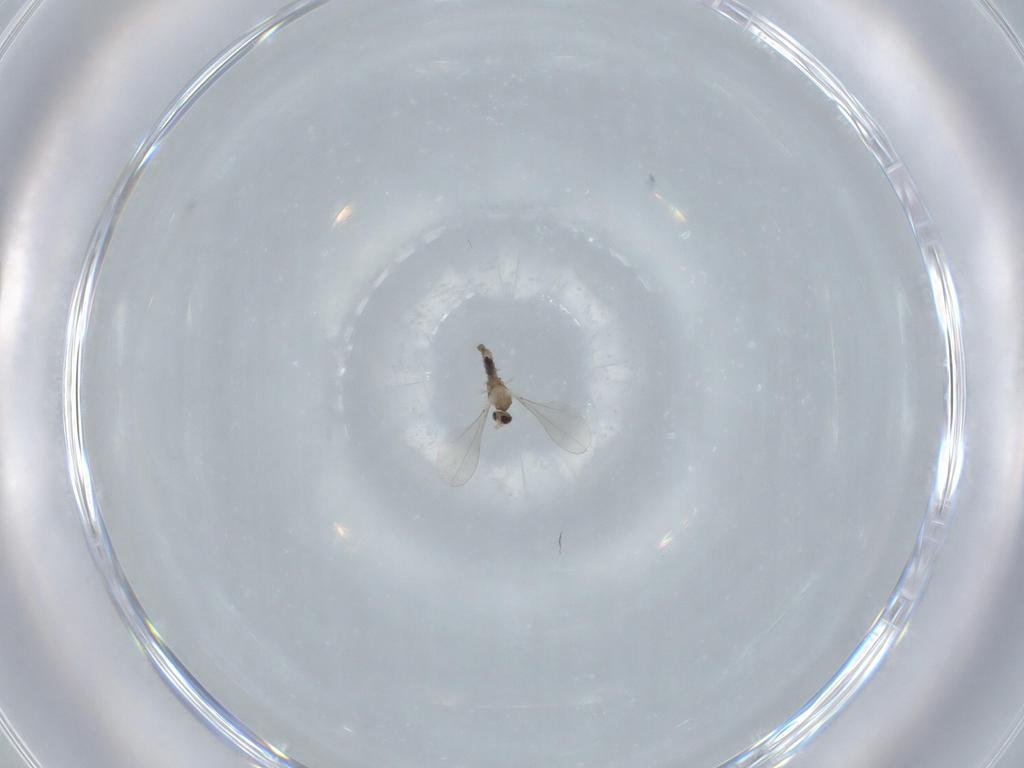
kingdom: Animalia
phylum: Arthropoda
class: Insecta
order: Diptera
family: Cecidomyiidae
